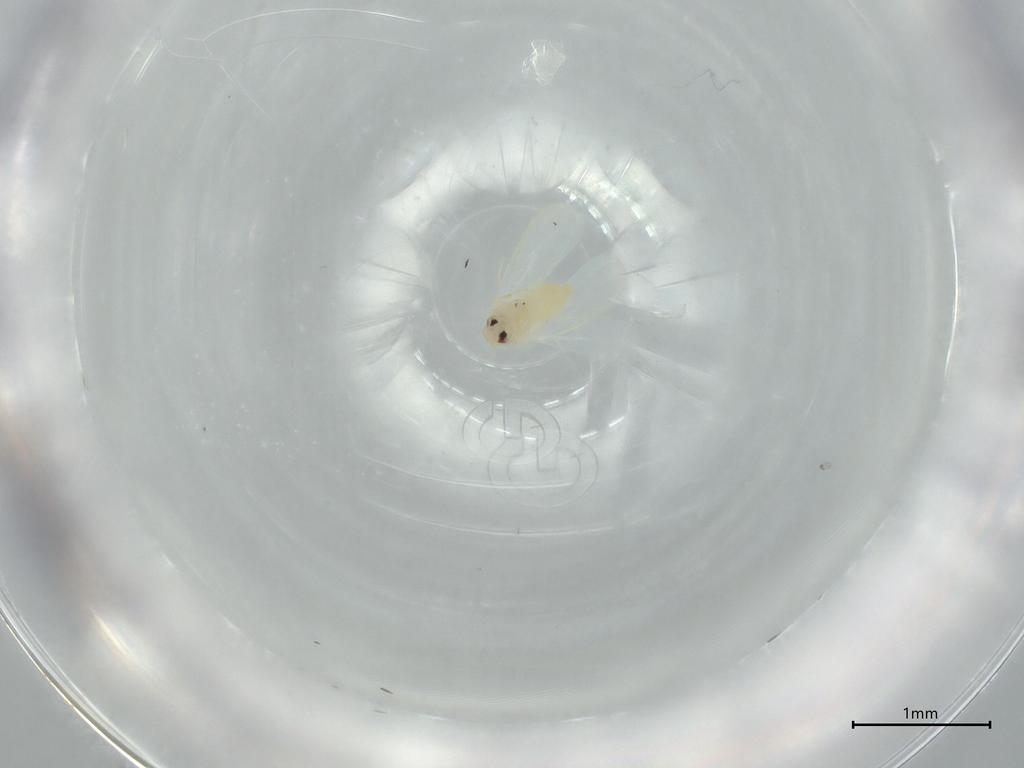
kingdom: Animalia
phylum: Arthropoda
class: Insecta
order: Hemiptera
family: Aleyrodidae
